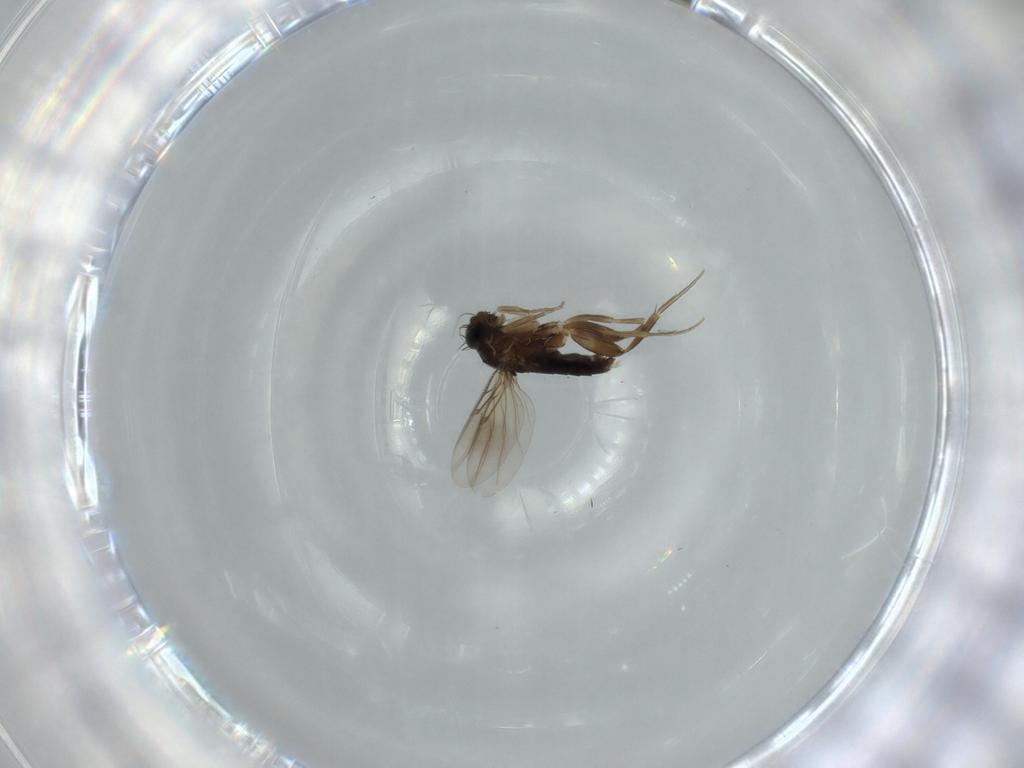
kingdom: Animalia
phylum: Arthropoda
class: Insecta
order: Diptera
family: Phoridae
